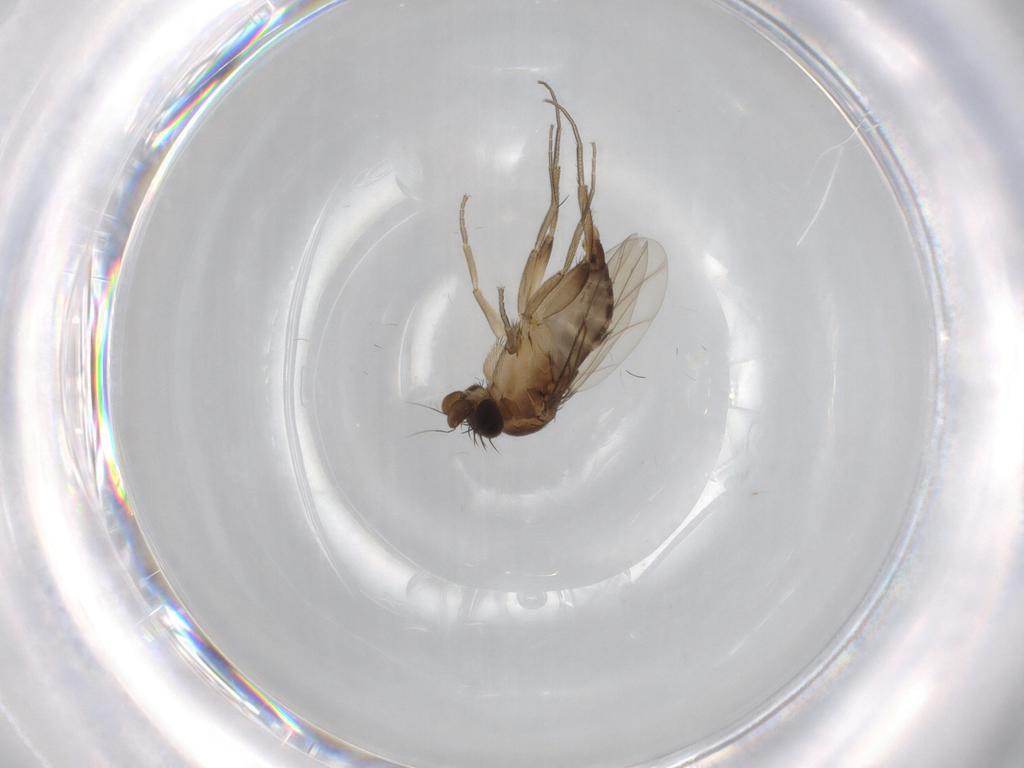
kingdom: Animalia
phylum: Arthropoda
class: Insecta
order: Diptera
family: Phoridae
